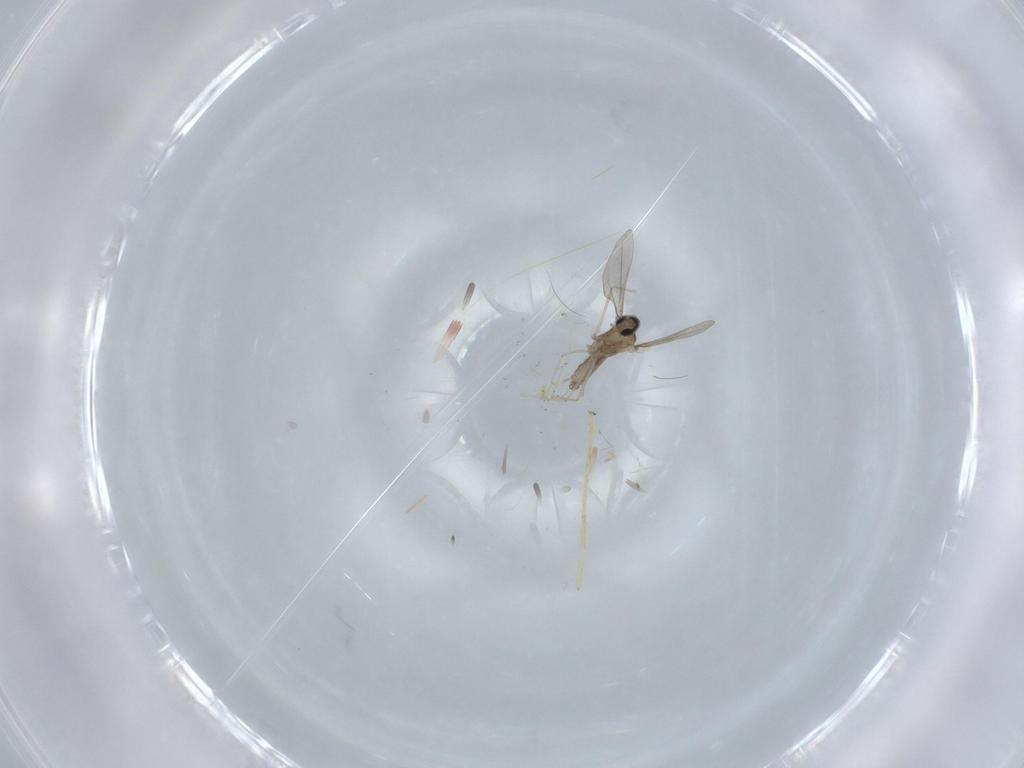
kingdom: Animalia
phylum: Arthropoda
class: Insecta
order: Diptera
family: Cecidomyiidae
